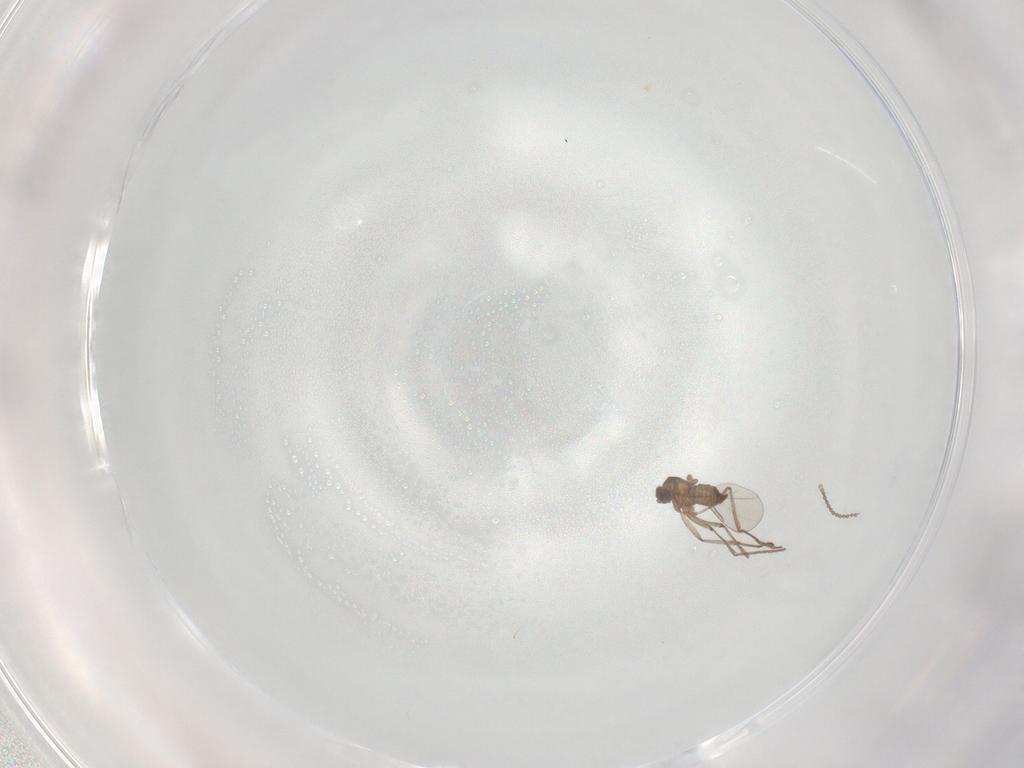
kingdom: Animalia
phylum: Arthropoda
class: Insecta
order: Diptera
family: Cecidomyiidae
